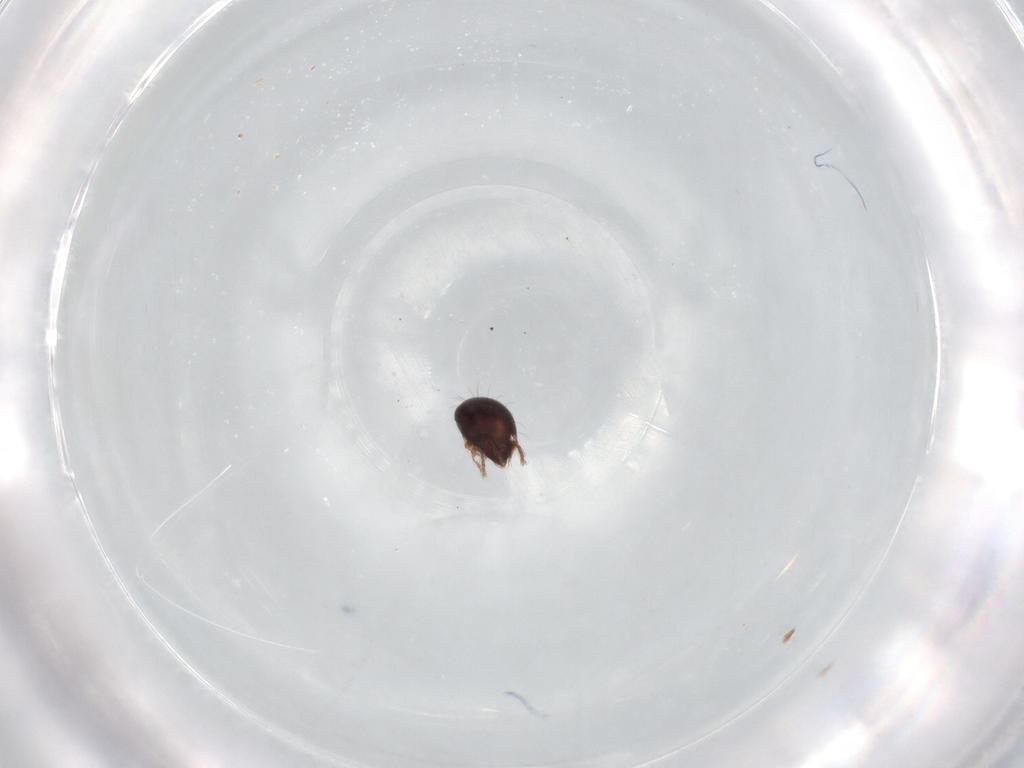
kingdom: Animalia
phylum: Arthropoda
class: Arachnida
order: Sarcoptiformes
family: Humerobatidae
